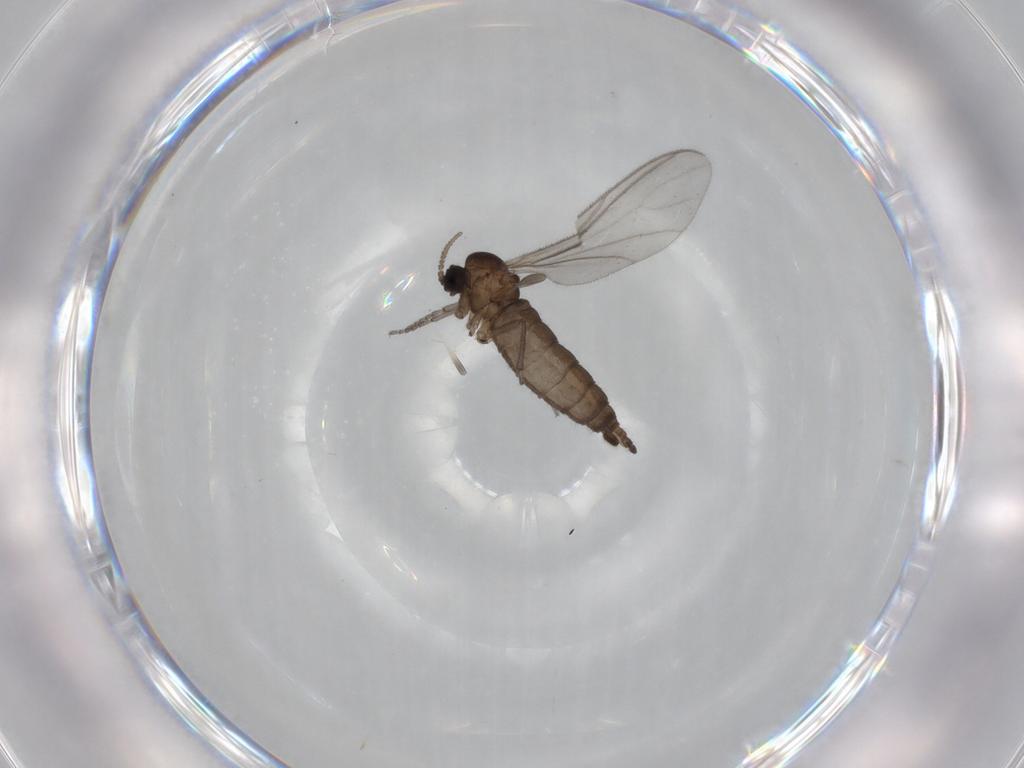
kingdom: Animalia
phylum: Arthropoda
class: Insecta
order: Diptera
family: Sciaridae
